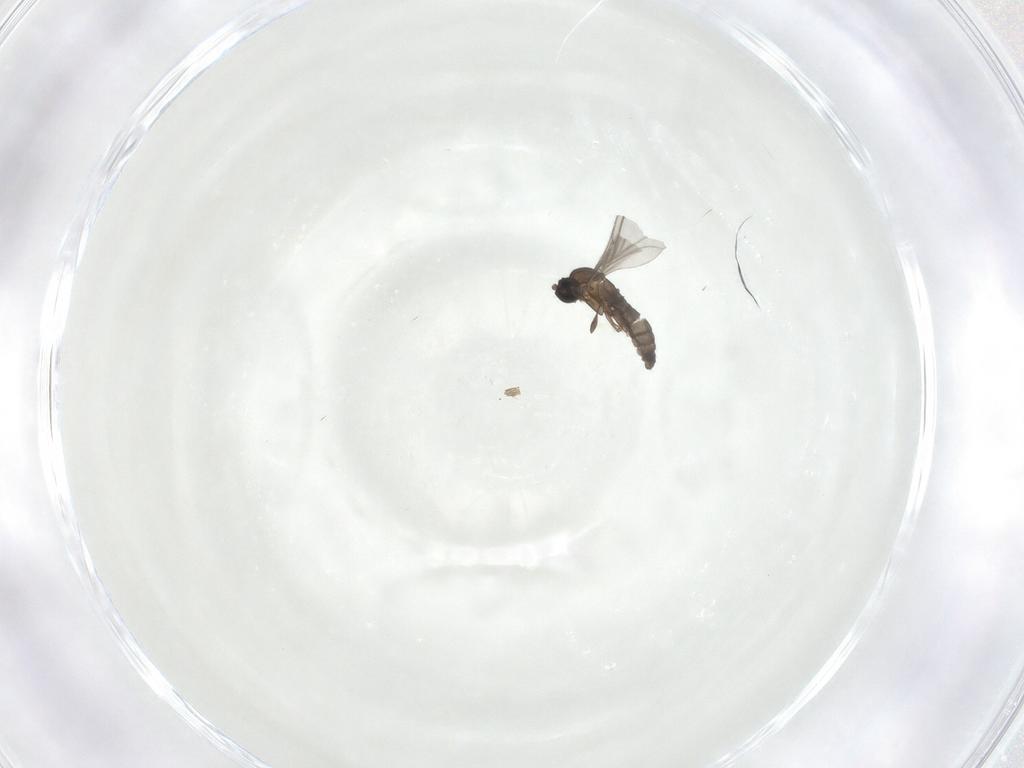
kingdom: Animalia
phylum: Arthropoda
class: Insecta
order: Diptera
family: Sciaridae
